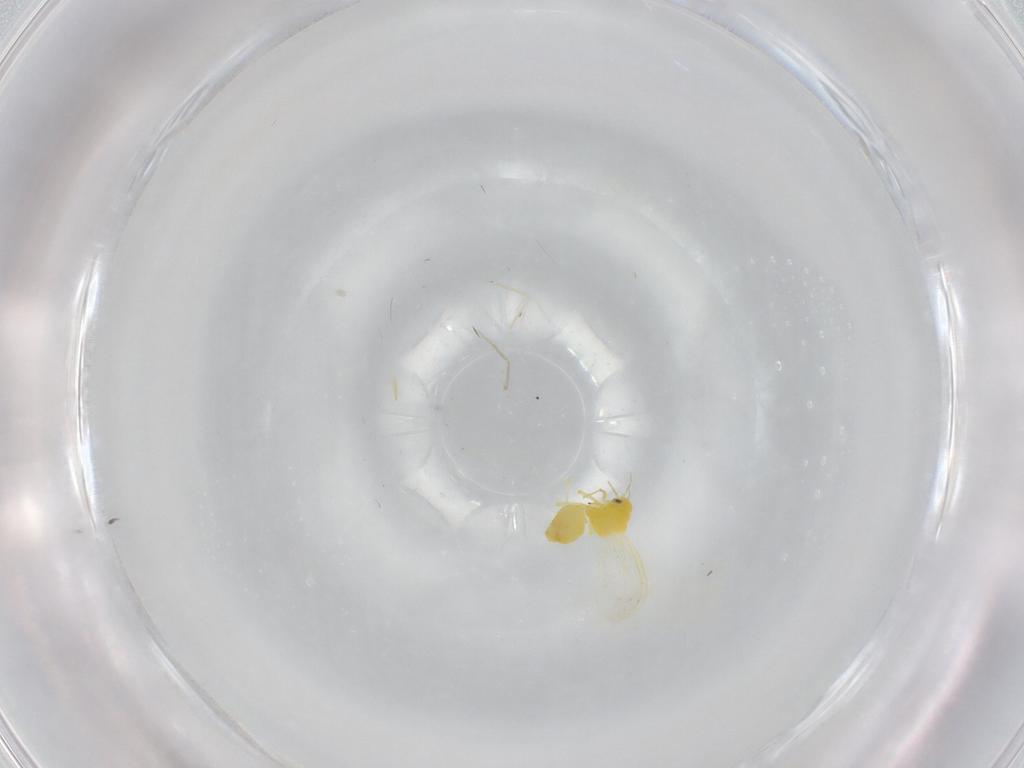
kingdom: Animalia
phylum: Arthropoda
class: Insecta
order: Hemiptera
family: Aleyrodidae
